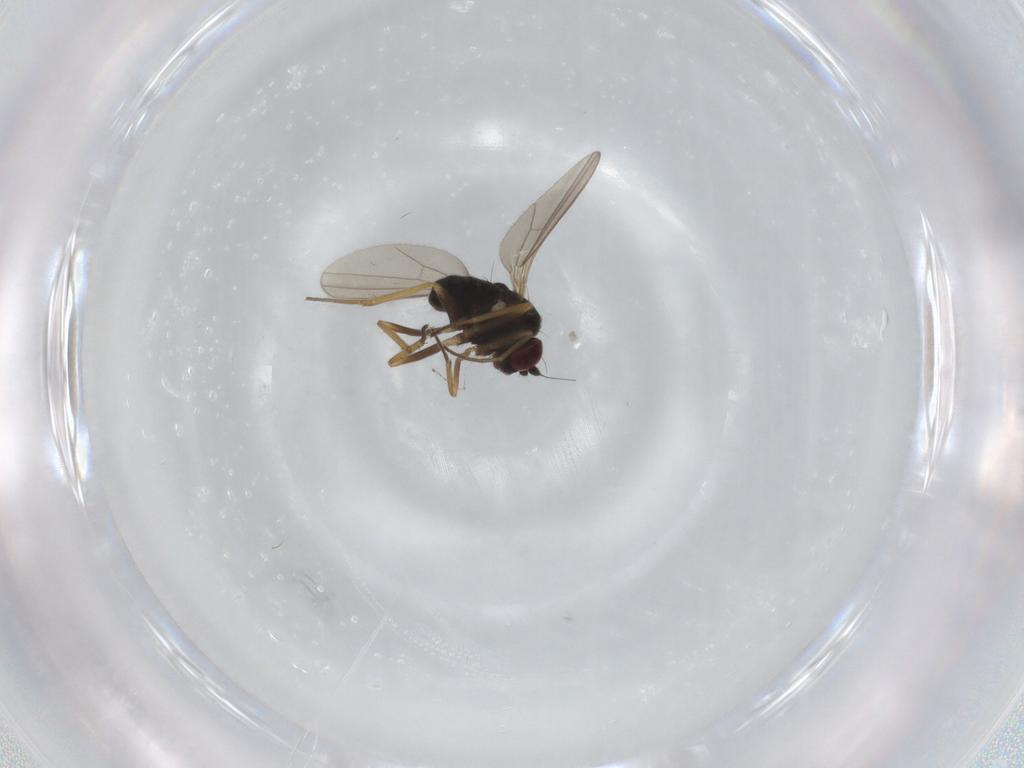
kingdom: Animalia
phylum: Arthropoda
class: Insecta
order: Diptera
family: Dolichopodidae
